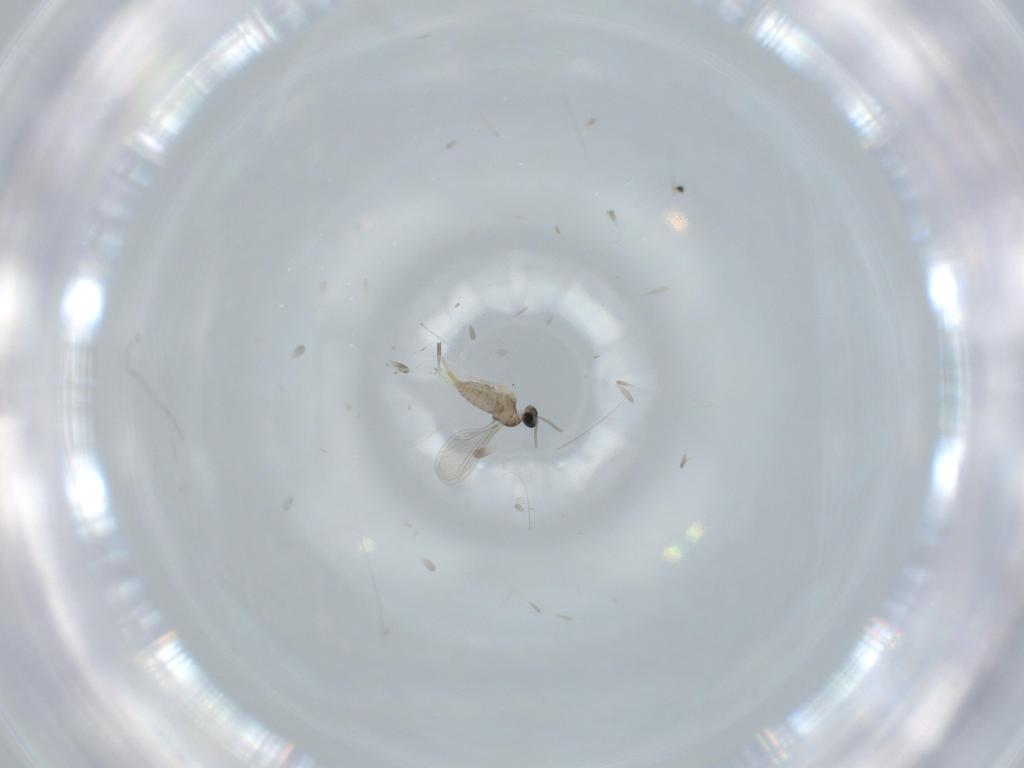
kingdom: Animalia
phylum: Arthropoda
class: Insecta
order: Diptera
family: Cecidomyiidae
